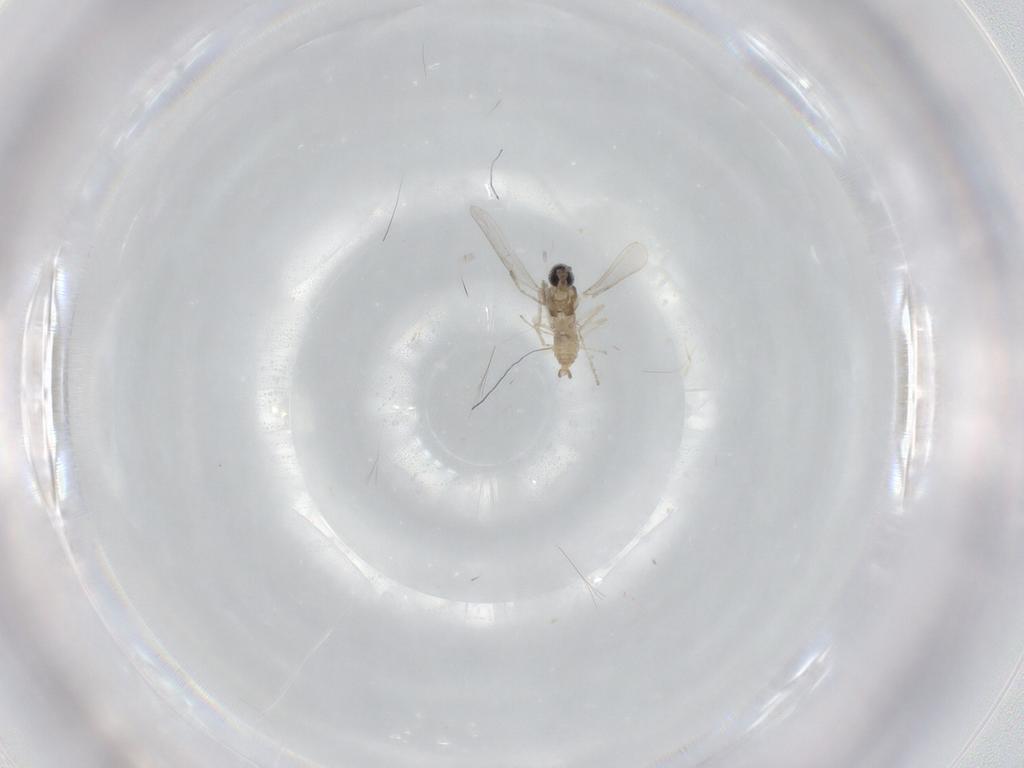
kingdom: Animalia
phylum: Arthropoda
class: Insecta
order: Diptera
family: Cecidomyiidae
